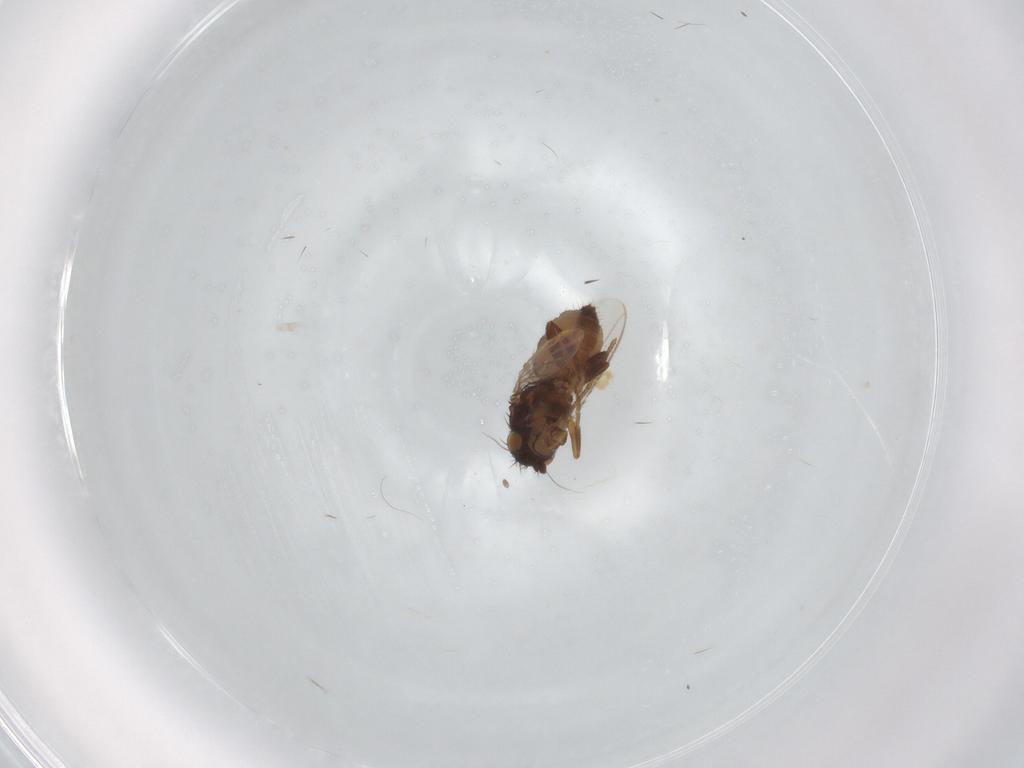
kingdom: Animalia
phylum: Arthropoda
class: Insecta
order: Diptera
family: Sphaeroceridae
